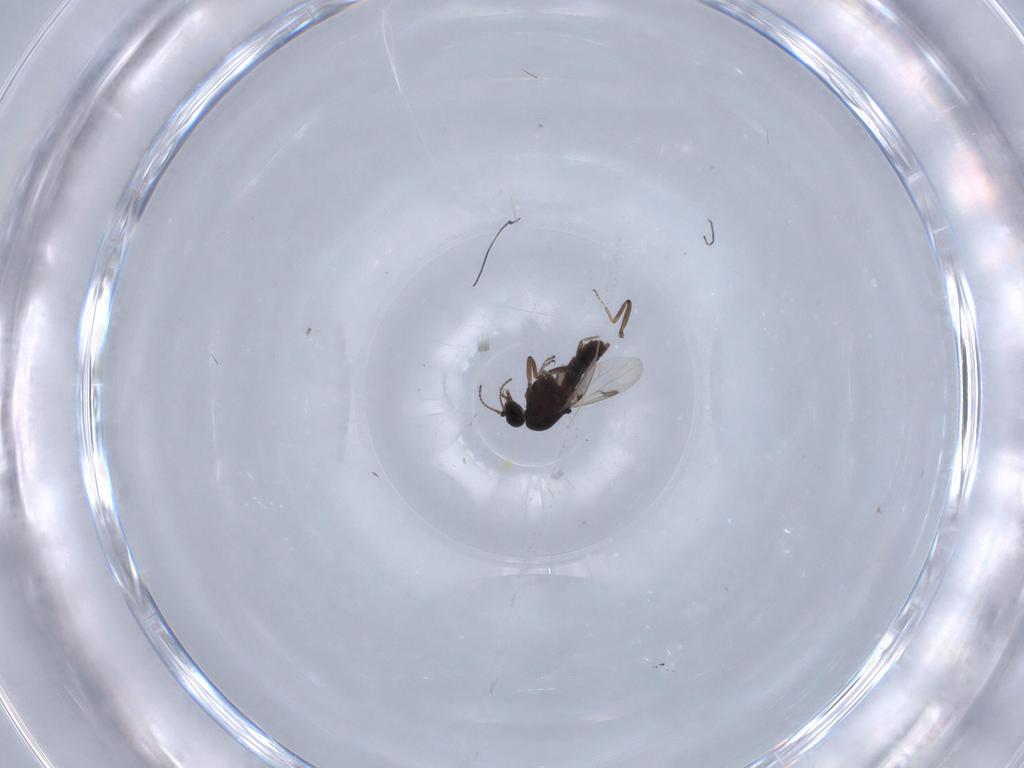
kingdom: Animalia
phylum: Arthropoda
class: Insecta
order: Diptera
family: Ceratopogonidae
